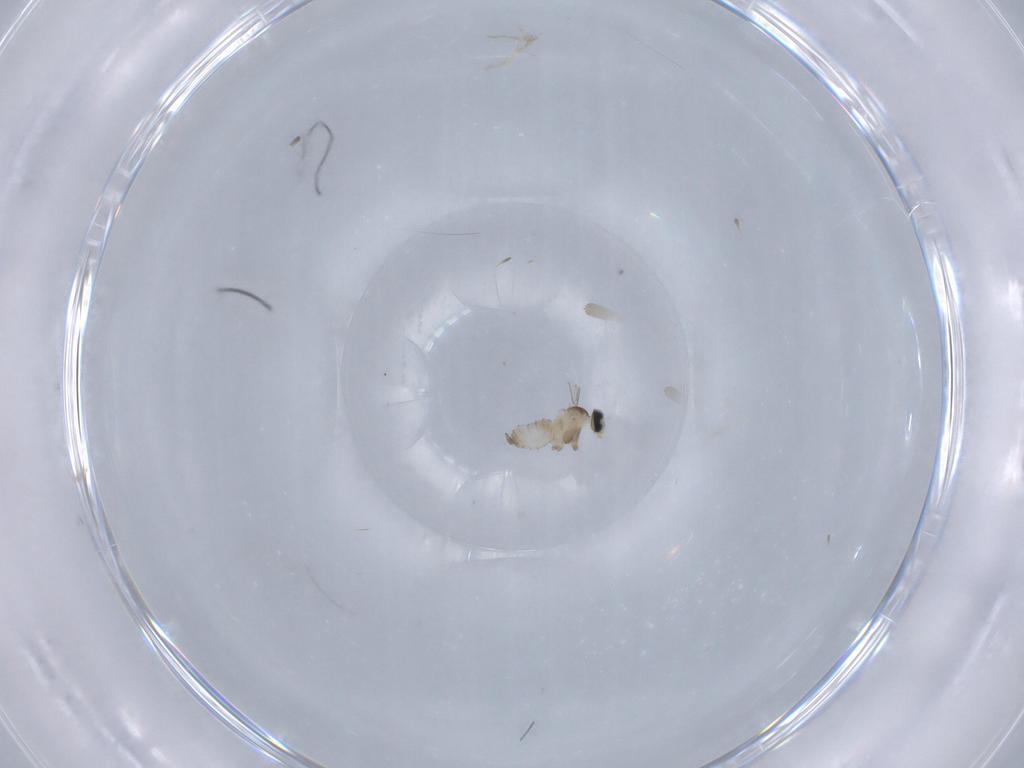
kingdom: Animalia
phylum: Arthropoda
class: Insecta
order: Diptera
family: Cecidomyiidae
